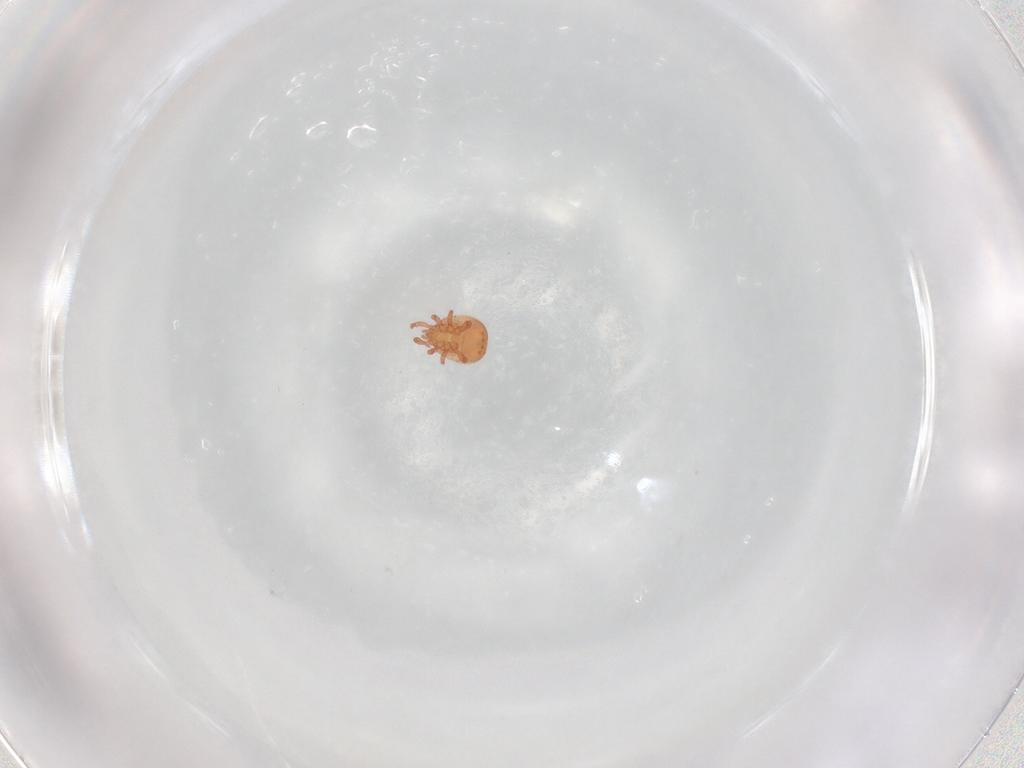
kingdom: Animalia
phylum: Arthropoda
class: Arachnida
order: Mesostigmata
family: Zerconidae
